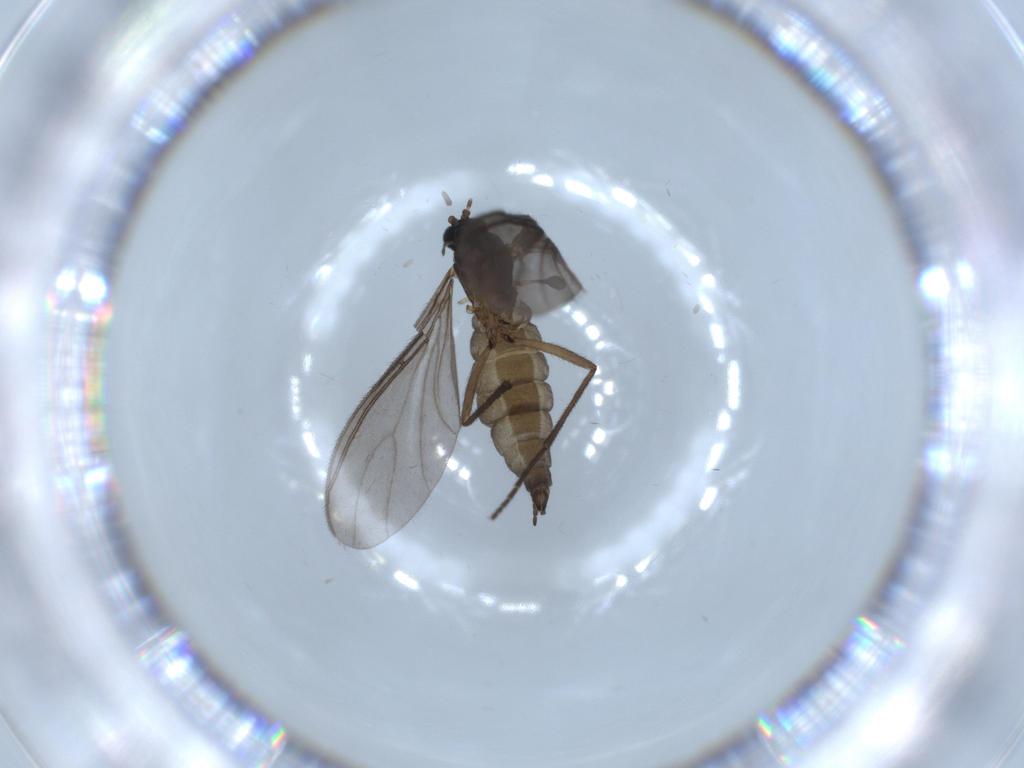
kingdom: Animalia
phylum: Arthropoda
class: Insecta
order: Diptera
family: Sciaridae
